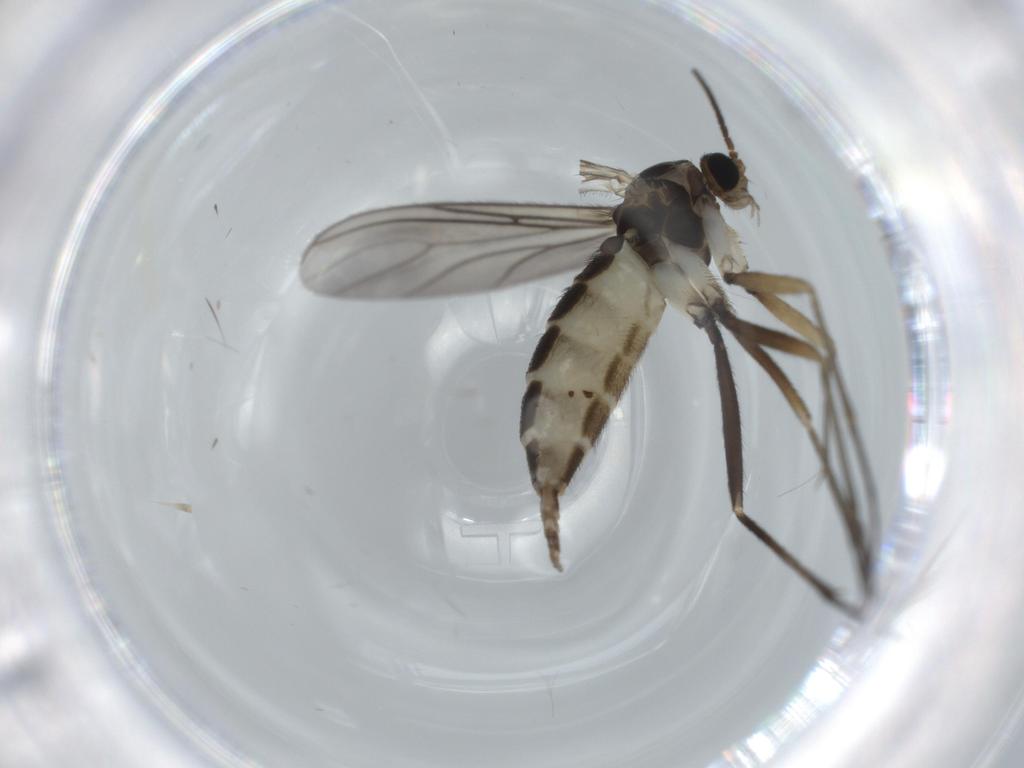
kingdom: Animalia
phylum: Arthropoda
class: Insecta
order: Diptera
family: Sciaridae
